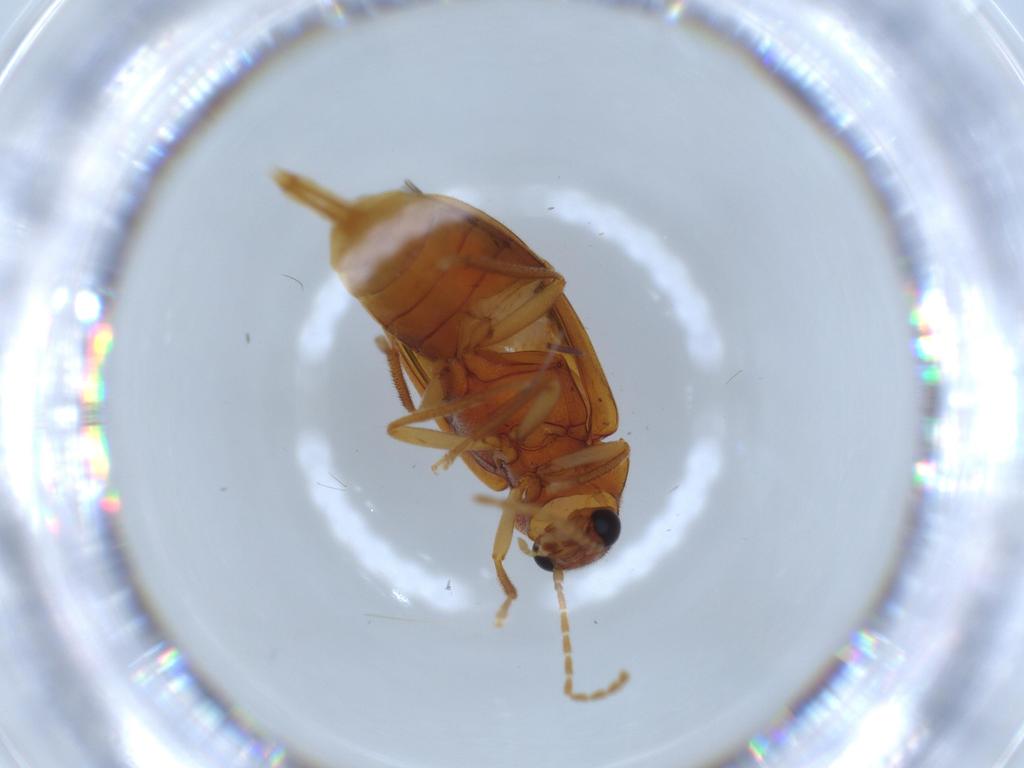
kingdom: Animalia
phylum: Arthropoda
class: Insecta
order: Coleoptera
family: Ptilodactylidae
